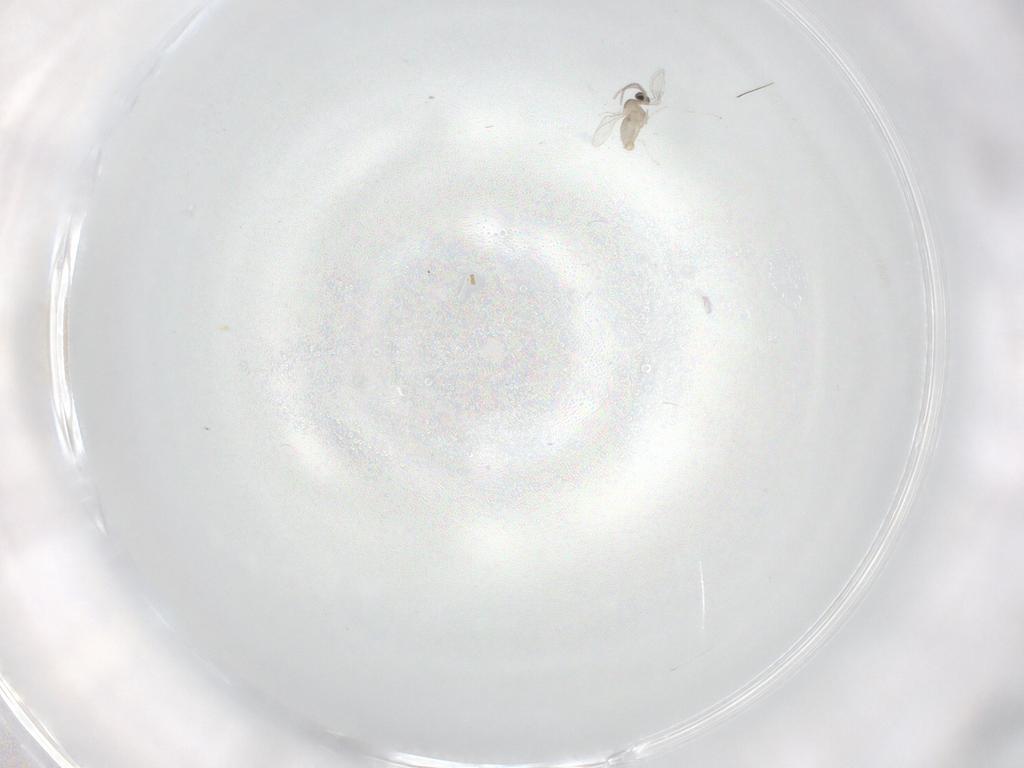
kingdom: Animalia
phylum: Arthropoda
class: Insecta
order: Diptera
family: Cecidomyiidae
